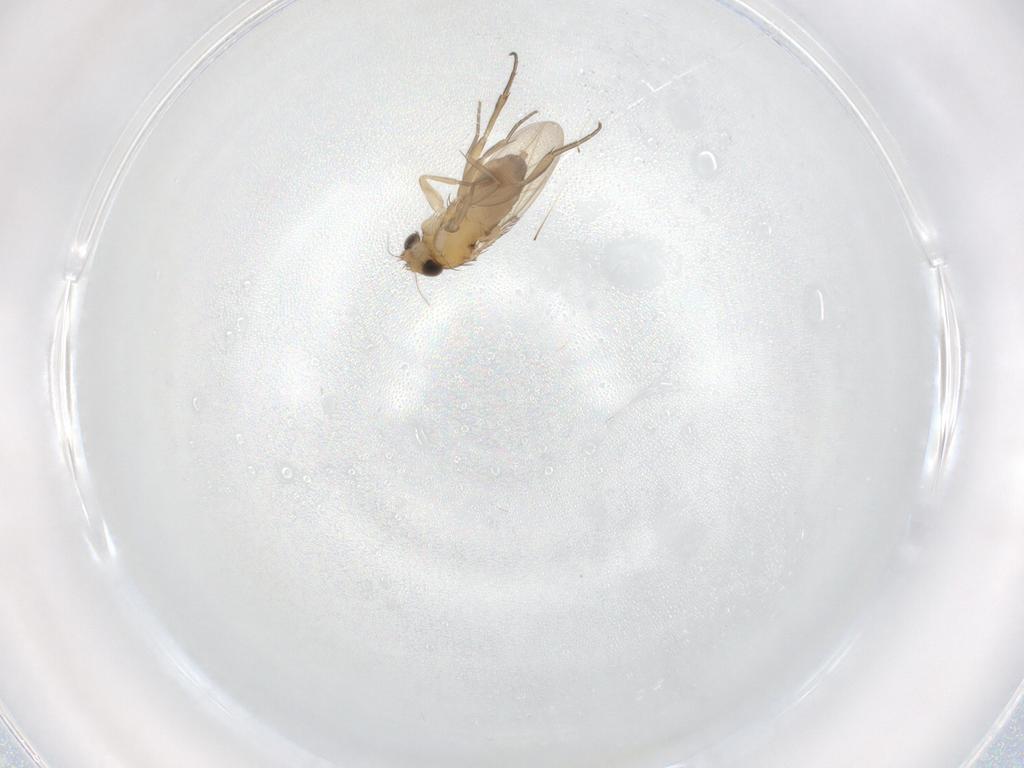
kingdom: Animalia
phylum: Arthropoda
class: Insecta
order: Diptera
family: Phoridae
